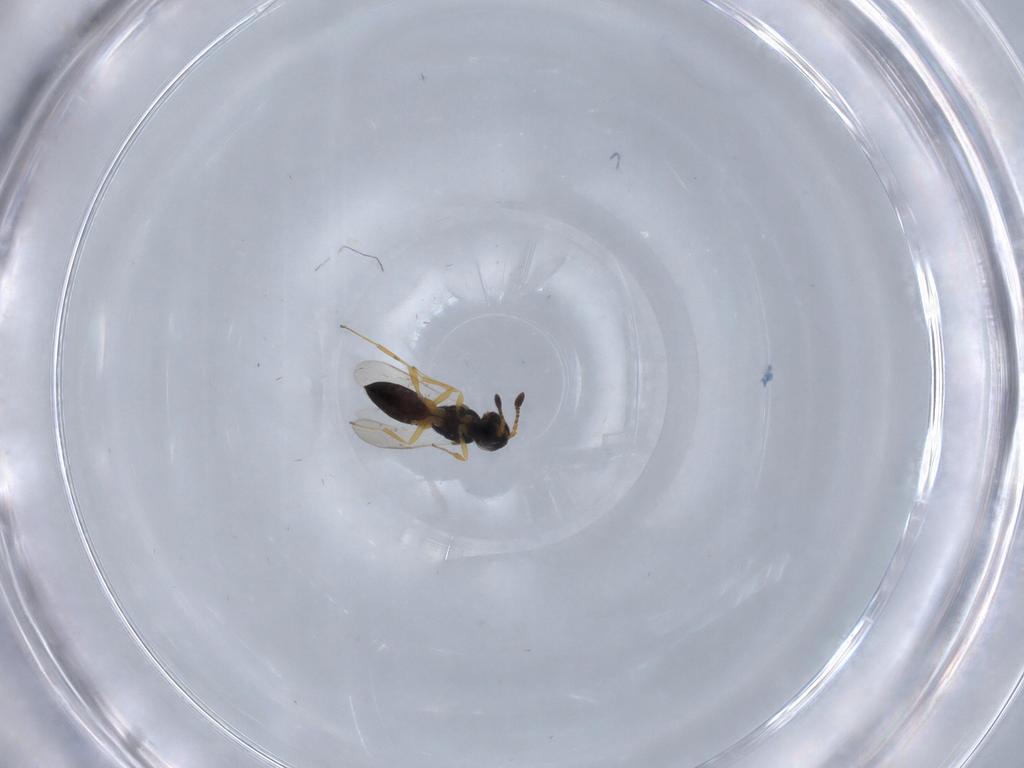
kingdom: Animalia
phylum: Arthropoda
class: Insecta
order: Hymenoptera
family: Scelionidae
